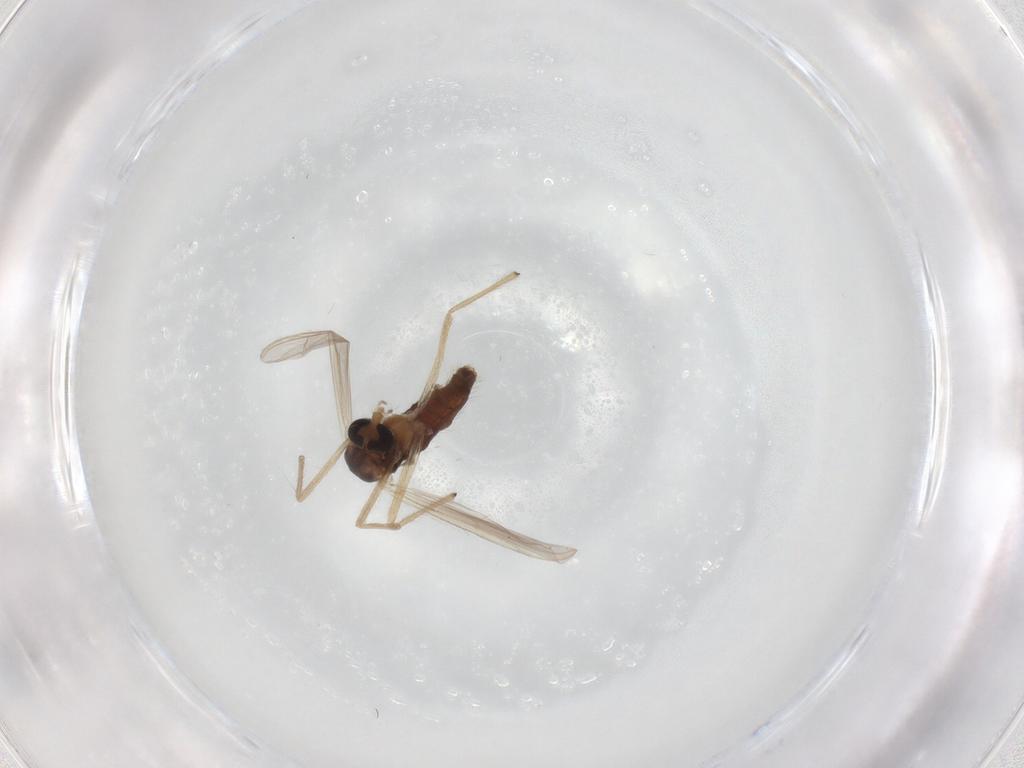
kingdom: Animalia
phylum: Arthropoda
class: Insecta
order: Diptera
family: Chironomidae
